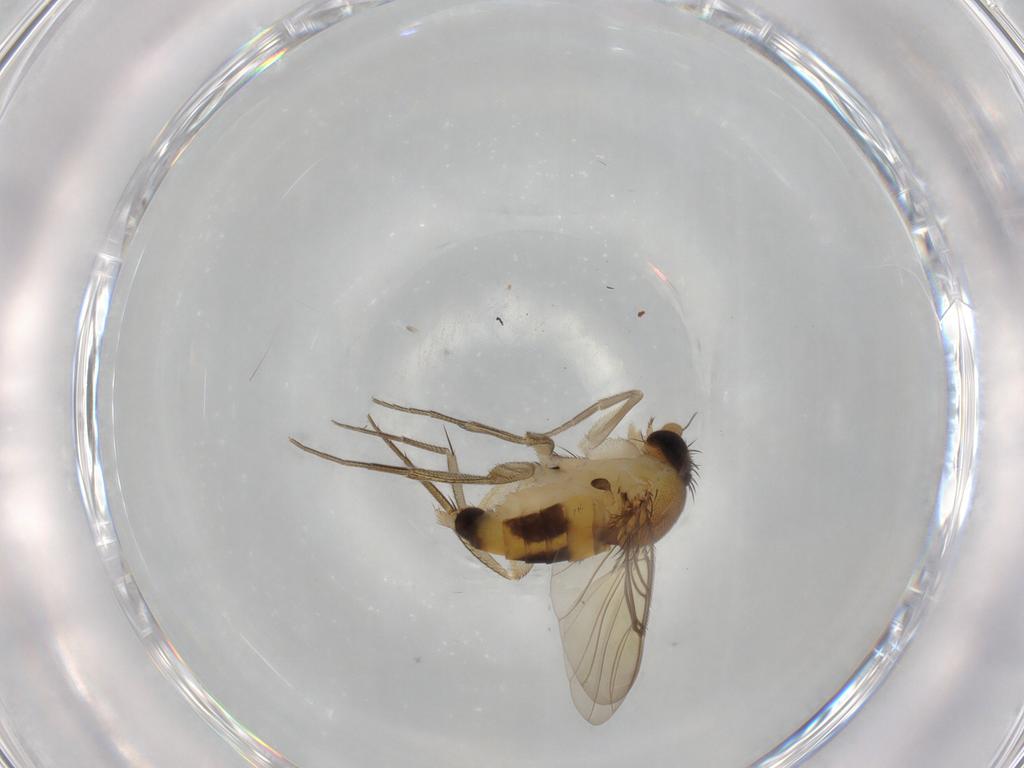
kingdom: Animalia
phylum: Arthropoda
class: Insecta
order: Diptera
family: Phoridae
